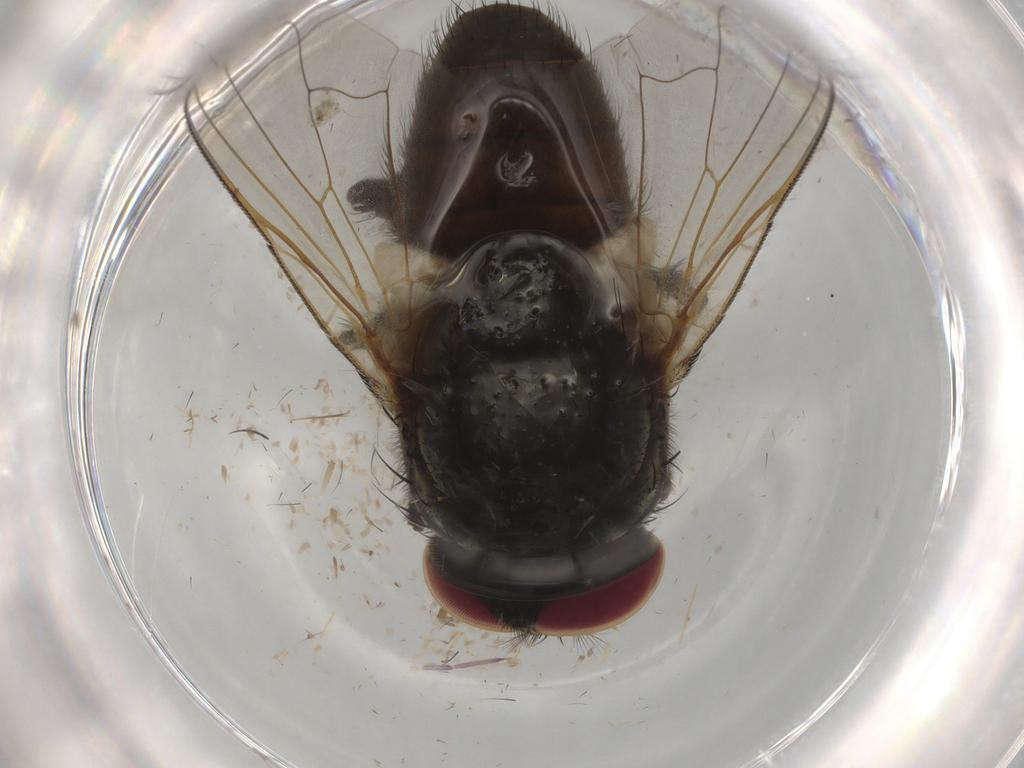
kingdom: Animalia
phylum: Arthropoda
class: Insecta
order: Diptera
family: Muscidae
